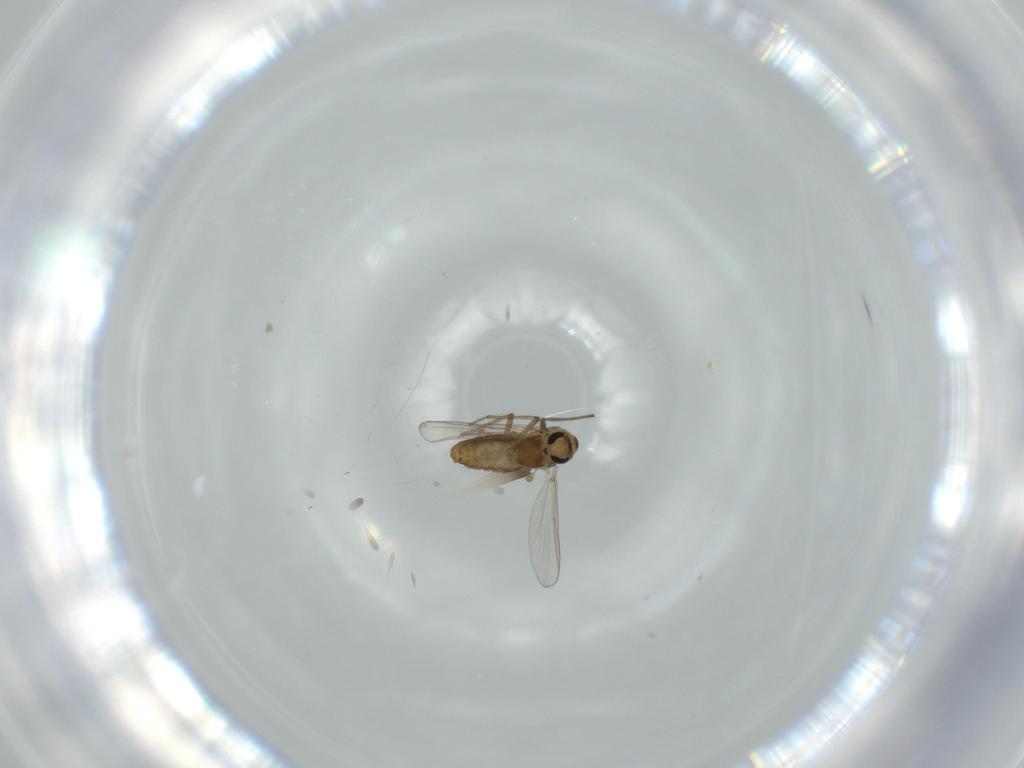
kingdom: Animalia
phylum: Arthropoda
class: Insecta
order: Diptera
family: Chironomidae
